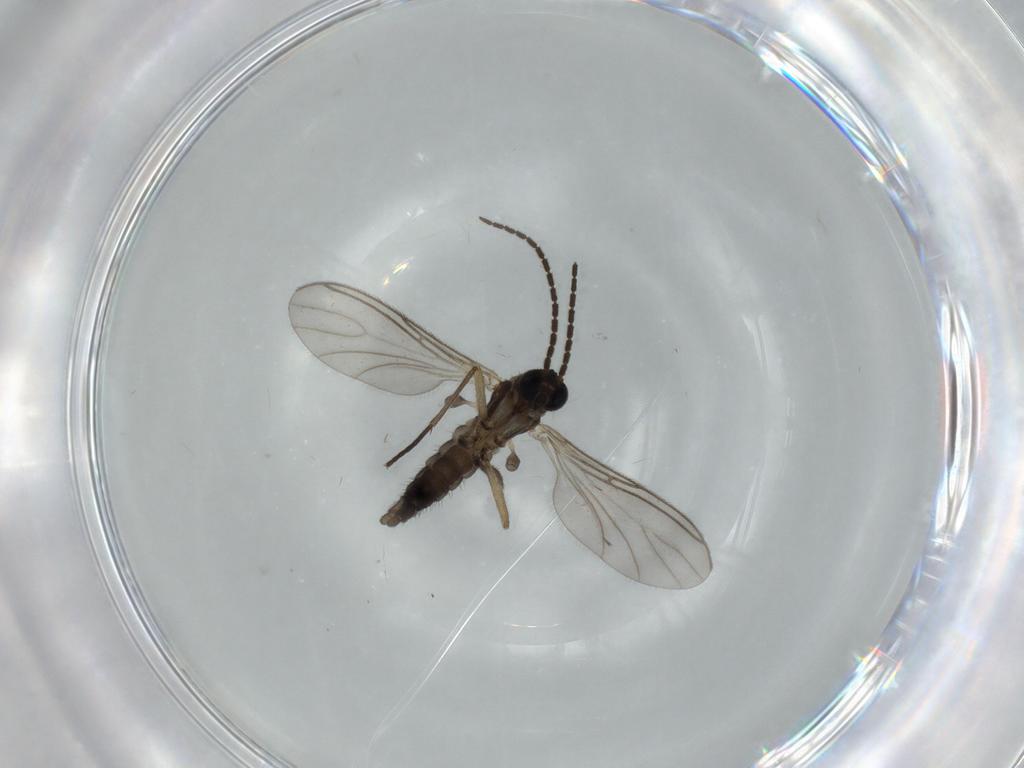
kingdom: Animalia
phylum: Arthropoda
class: Insecta
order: Diptera
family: Sciaridae
